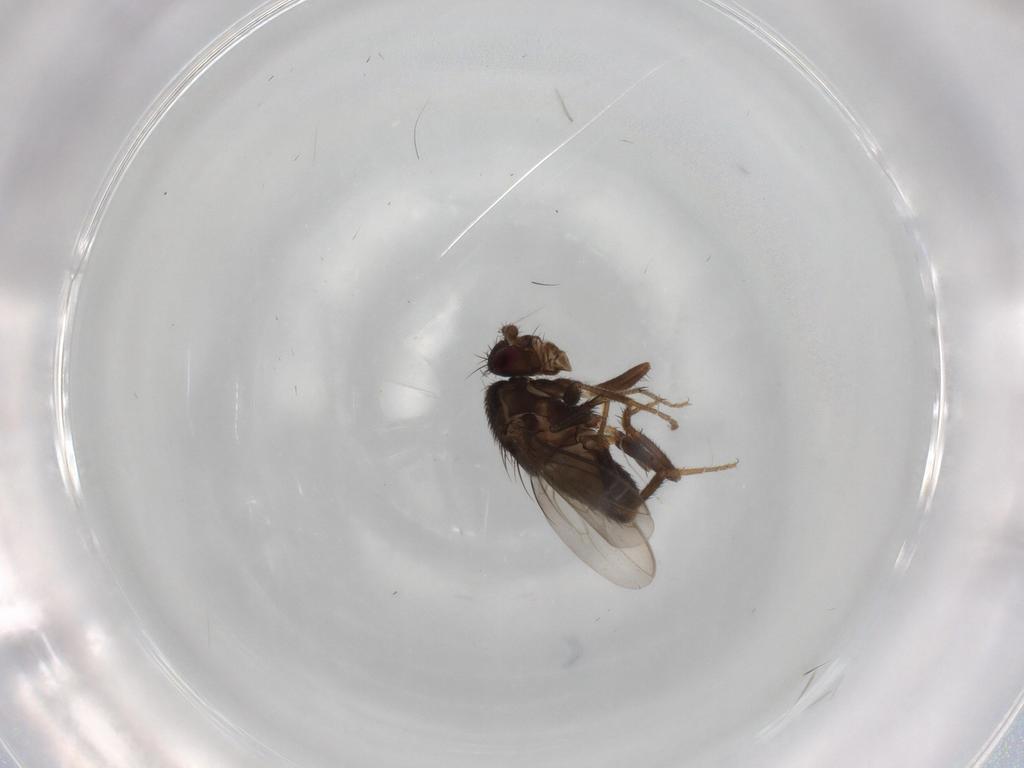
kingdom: Animalia
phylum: Arthropoda
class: Insecta
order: Diptera
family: Sphaeroceridae
